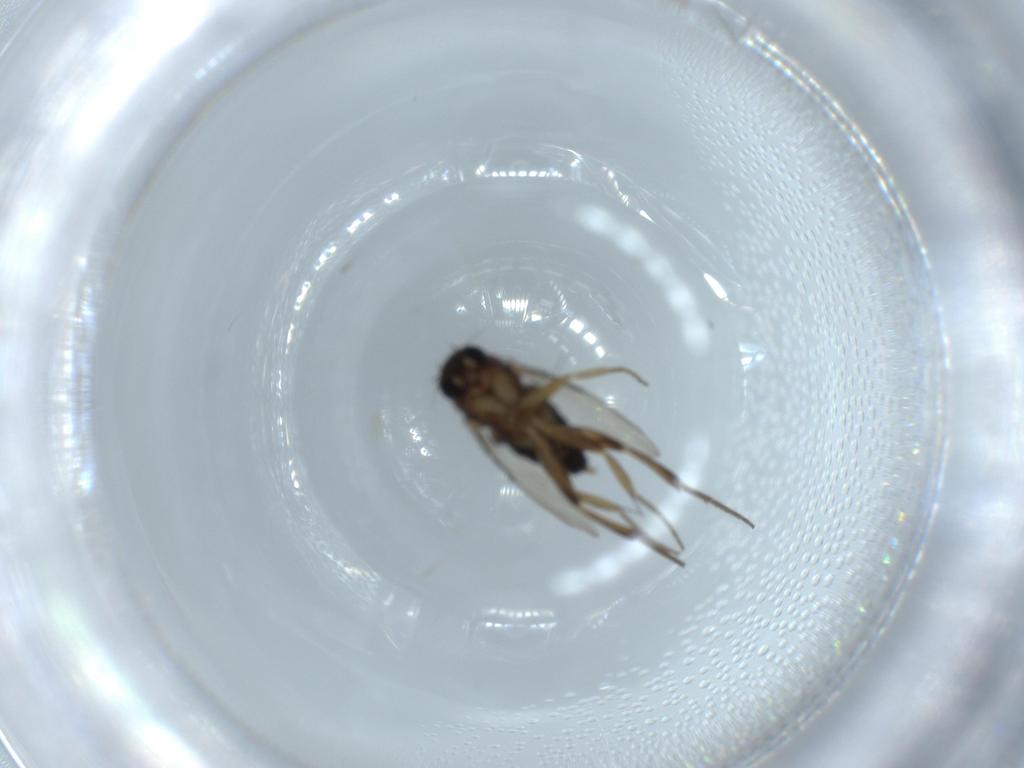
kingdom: Animalia
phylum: Arthropoda
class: Insecta
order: Diptera
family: Phoridae
